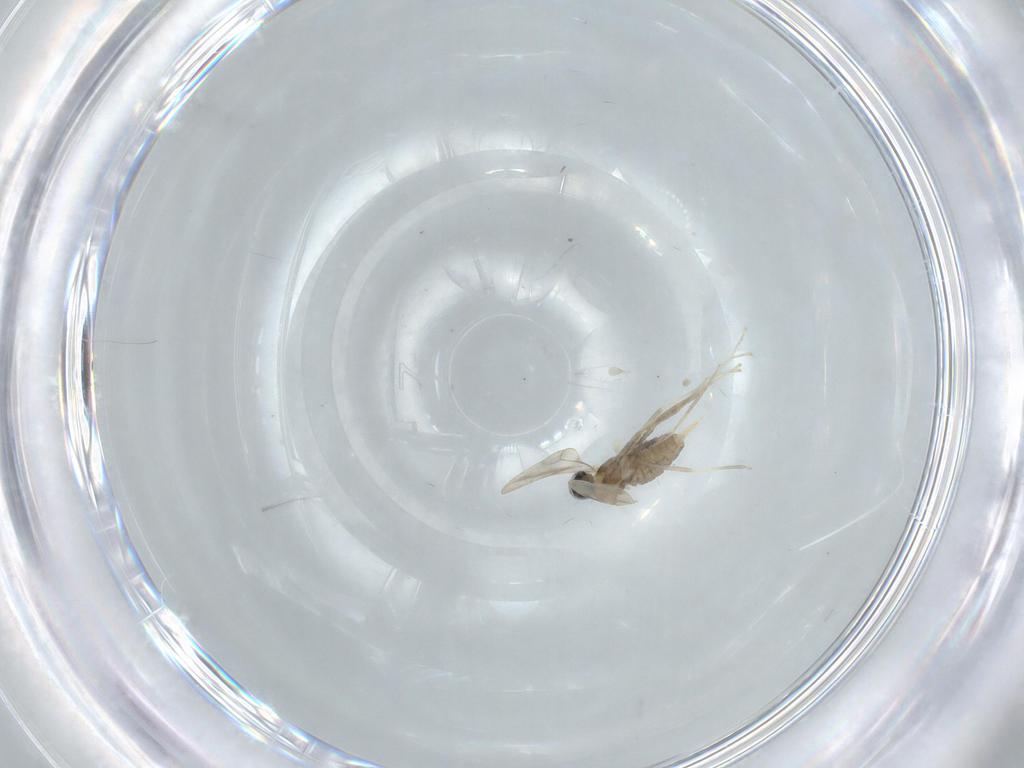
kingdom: Animalia
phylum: Arthropoda
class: Insecta
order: Diptera
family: Cecidomyiidae
